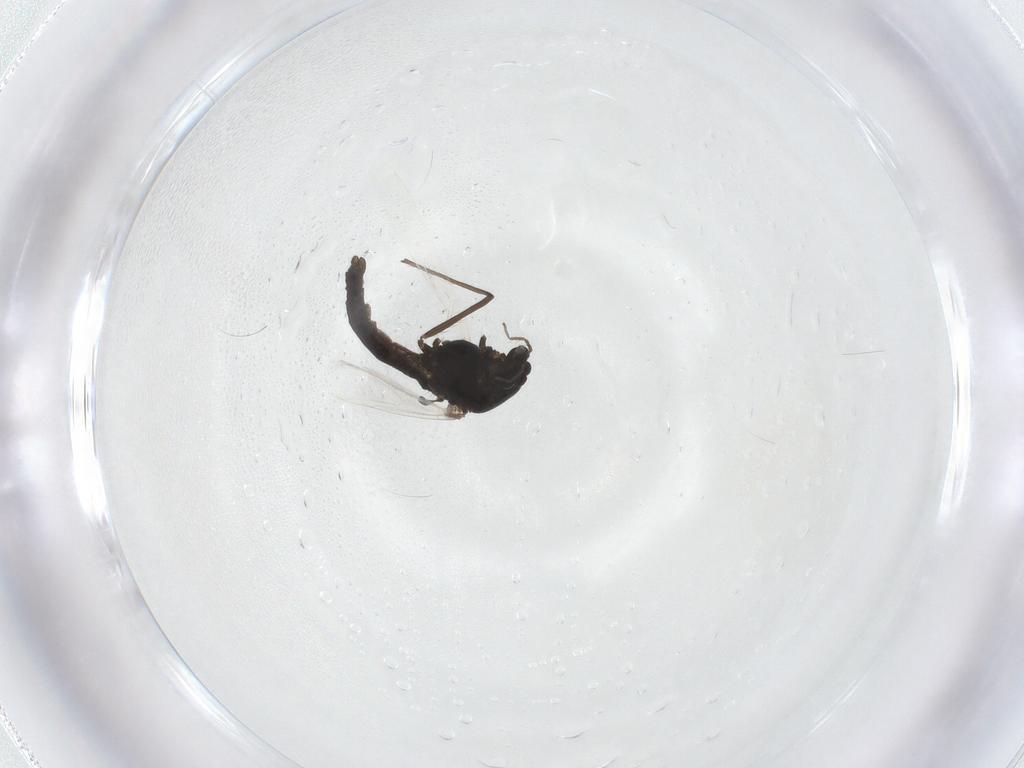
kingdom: Animalia
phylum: Arthropoda
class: Insecta
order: Diptera
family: Chironomidae
